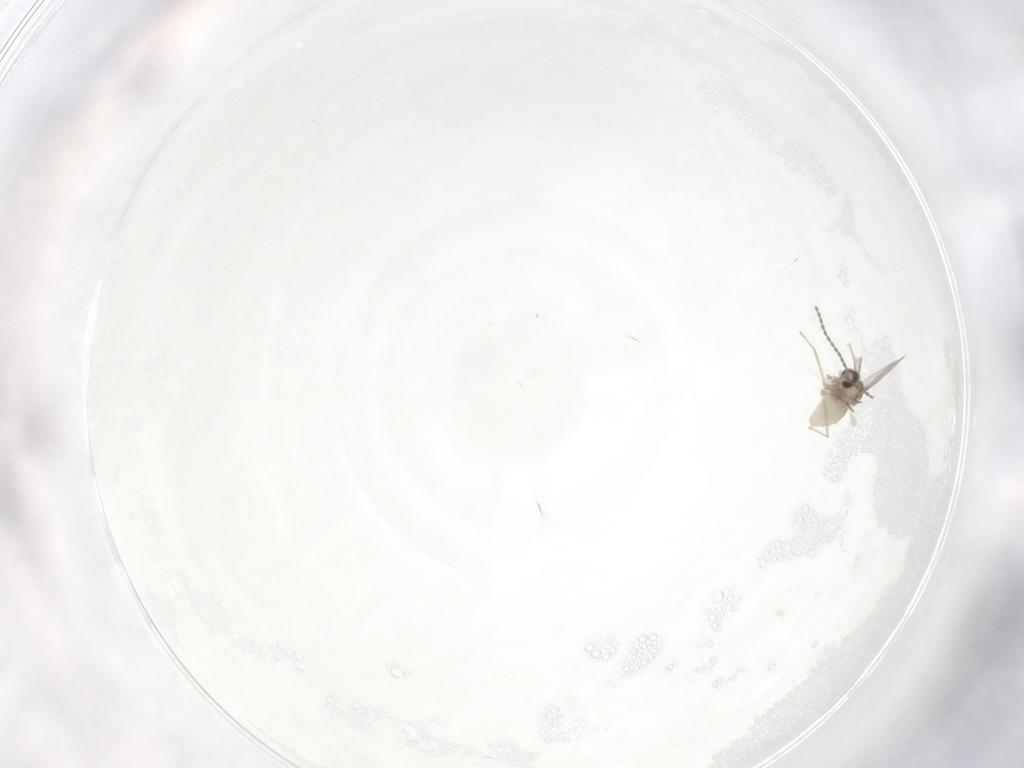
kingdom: Animalia
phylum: Arthropoda
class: Insecta
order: Diptera
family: Cecidomyiidae
